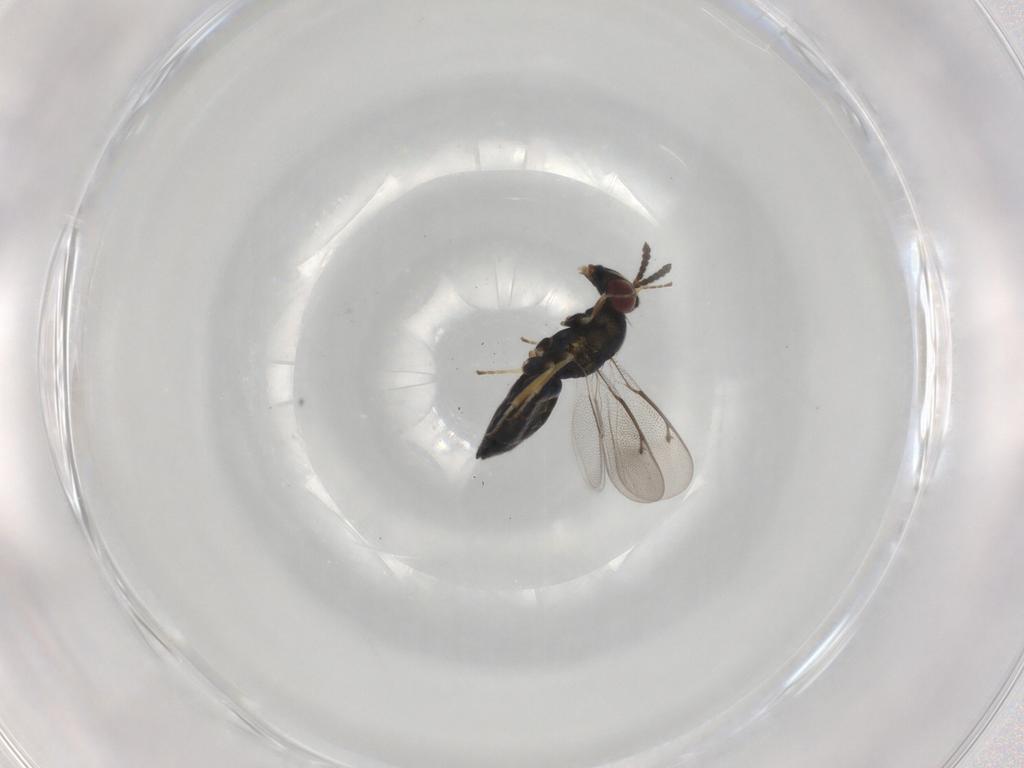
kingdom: Animalia
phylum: Arthropoda
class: Insecta
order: Hymenoptera
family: Eulophidae
